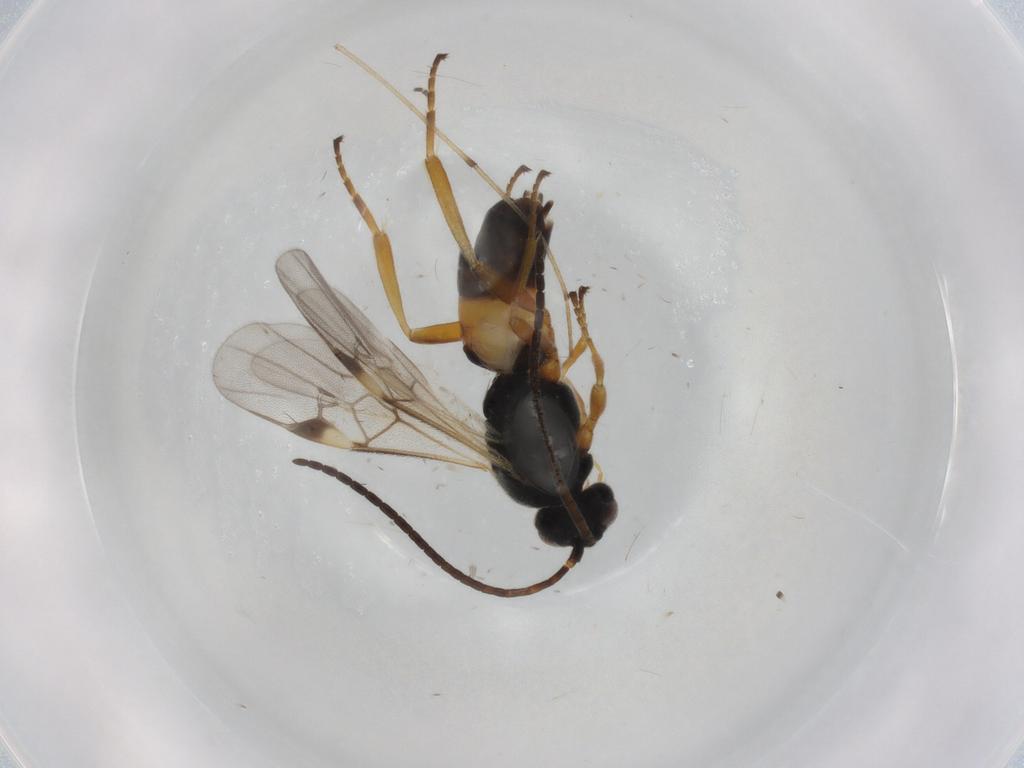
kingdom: Animalia
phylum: Arthropoda
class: Insecta
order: Hymenoptera
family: Braconidae
